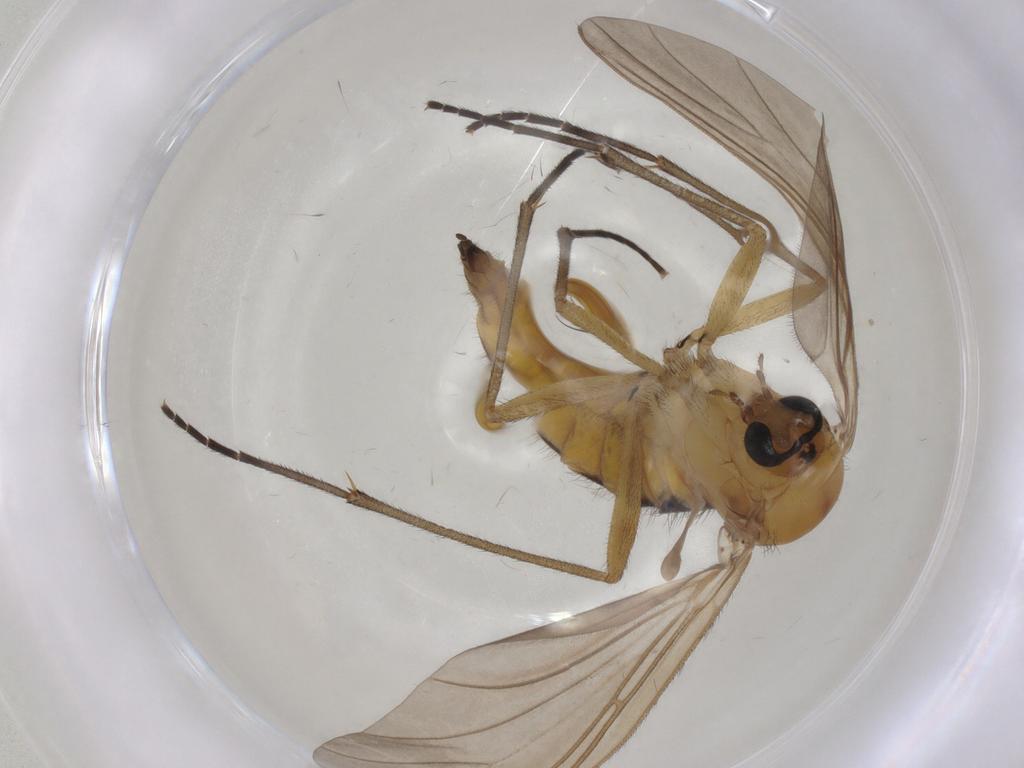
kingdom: Animalia
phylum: Arthropoda
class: Insecta
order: Diptera
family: Sciaridae
